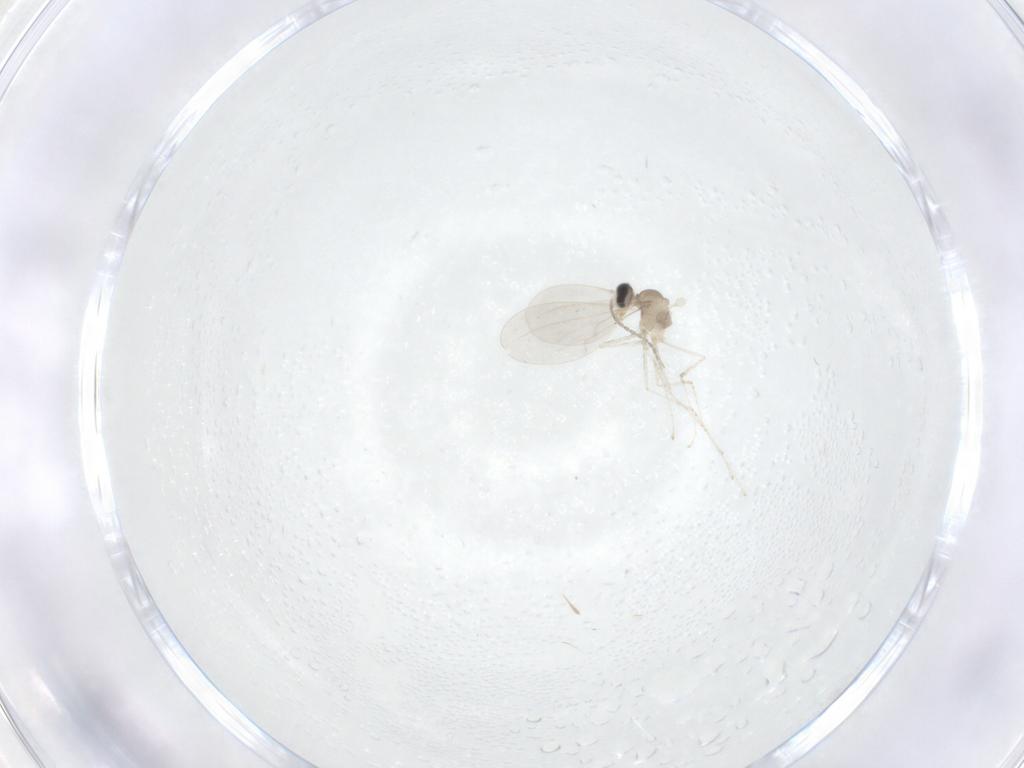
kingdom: Animalia
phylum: Arthropoda
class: Insecta
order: Diptera
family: Cecidomyiidae
